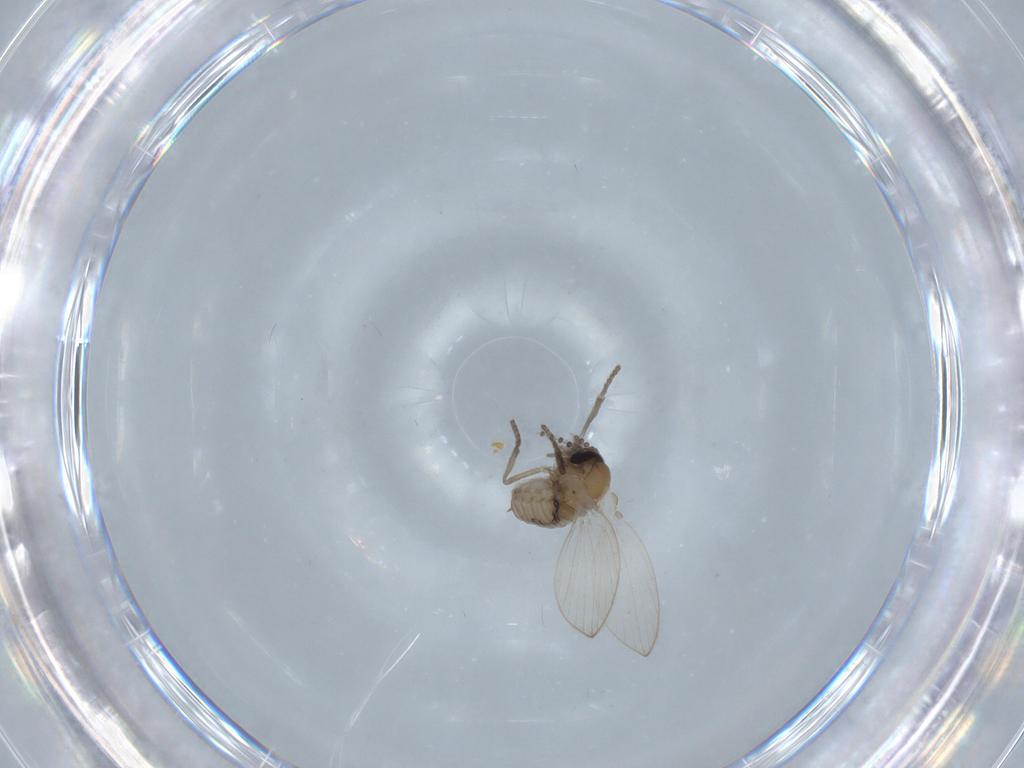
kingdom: Animalia
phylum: Arthropoda
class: Insecta
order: Diptera
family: Psychodidae
